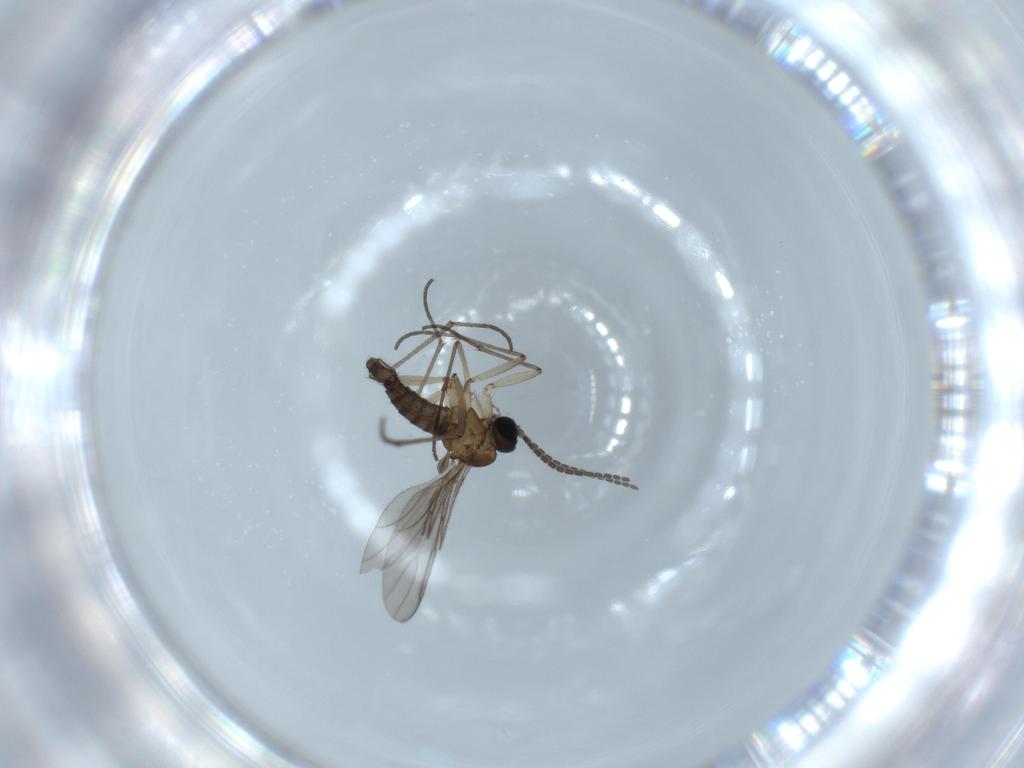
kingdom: Animalia
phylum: Arthropoda
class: Insecta
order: Diptera
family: Sciaridae
